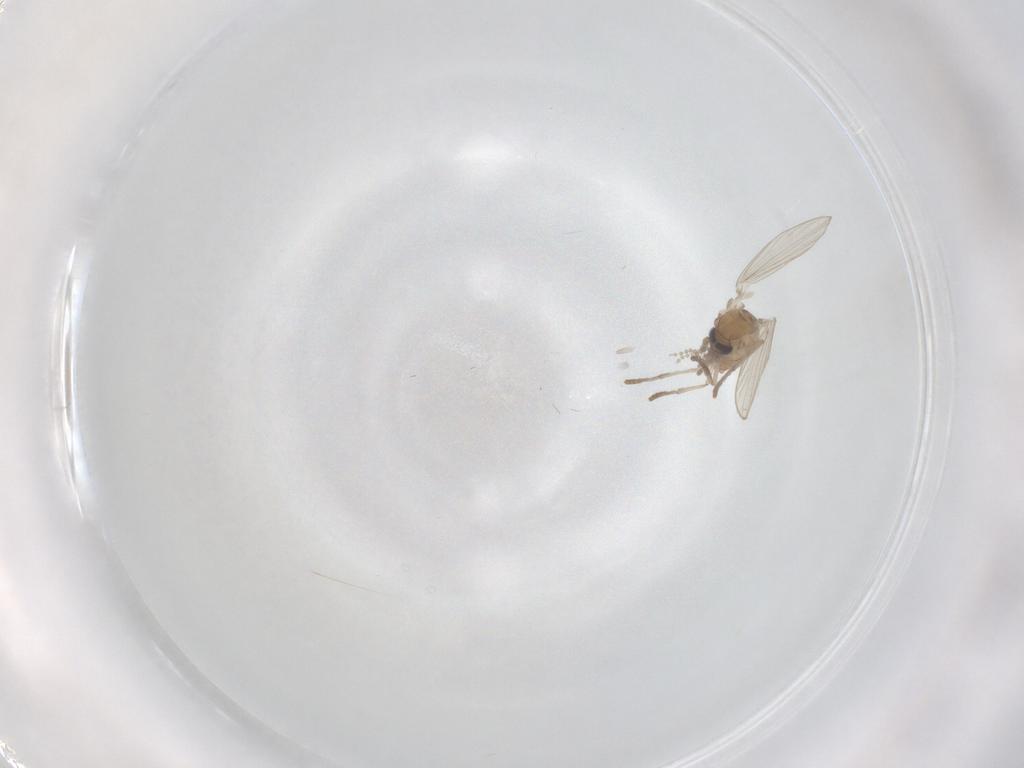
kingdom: Animalia
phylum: Arthropoda
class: Insecta
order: Diptera
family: Psychodidae
